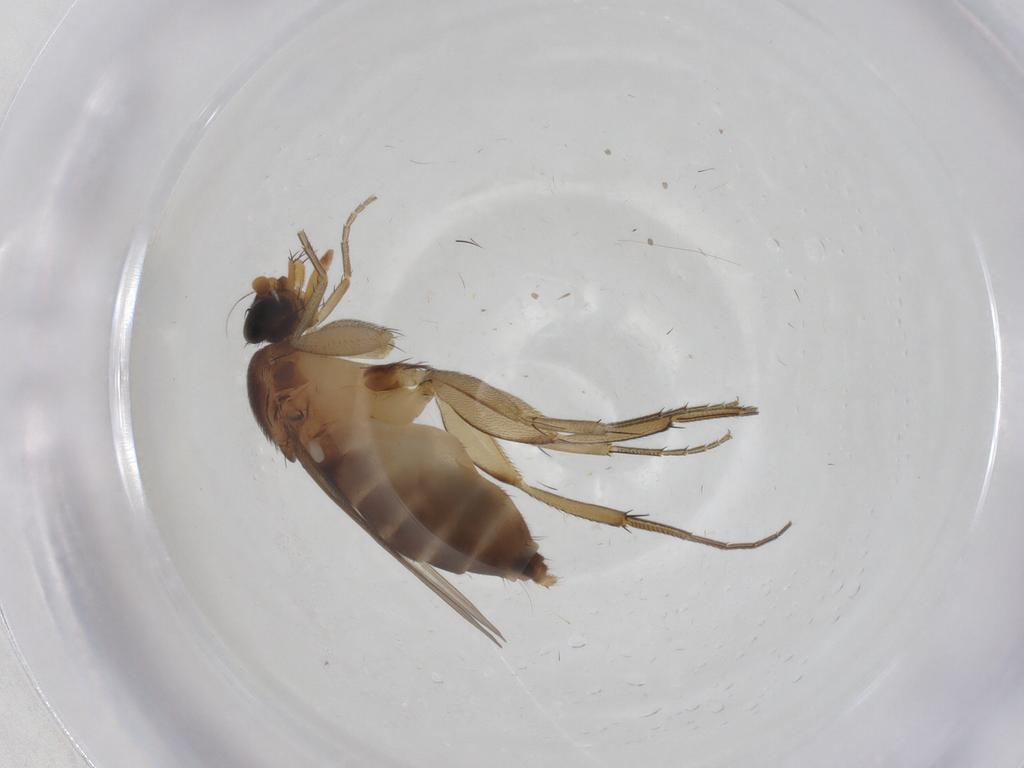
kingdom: Animalia
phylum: Arthropoda
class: Insecta
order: Diptera
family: Phoridae
